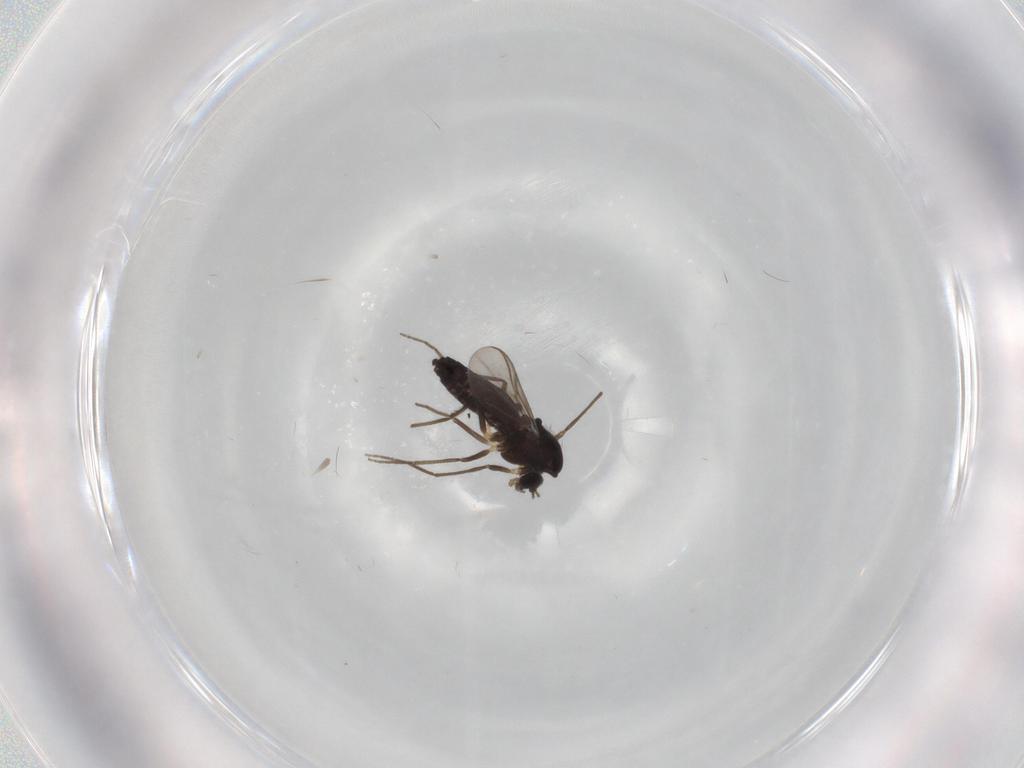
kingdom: Animalia
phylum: Arthropoda
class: Insecta
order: Diptera
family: Chironomidae
